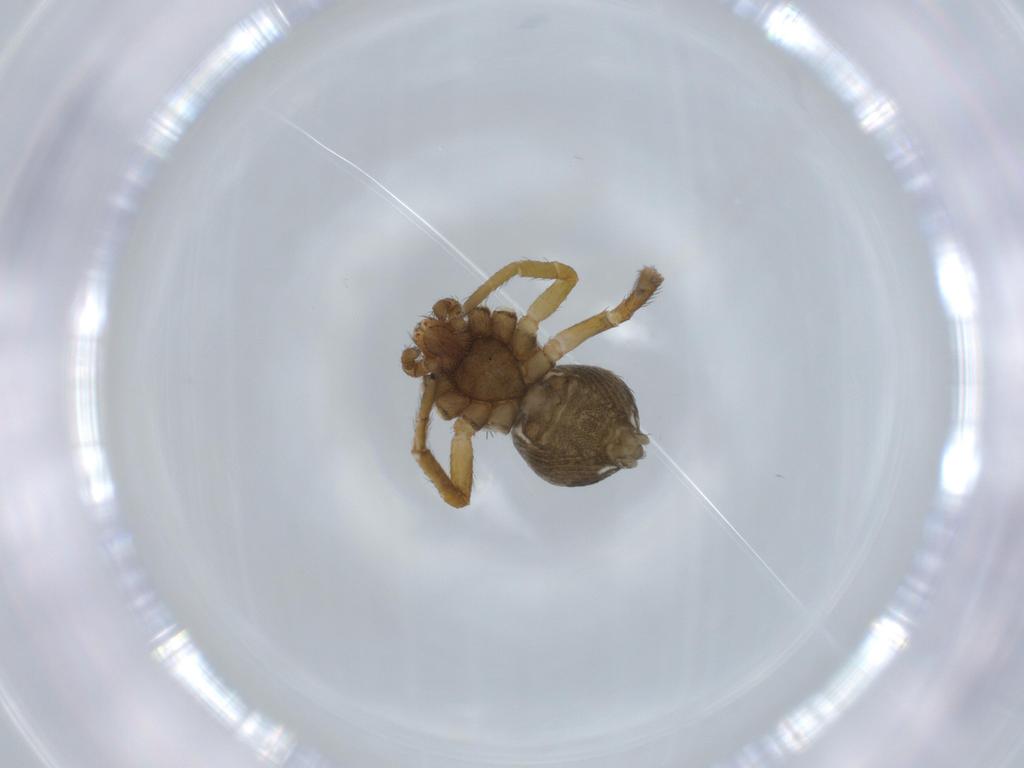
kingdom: Animalia
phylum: Arthropoda
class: Arachnida
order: Araneae
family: Thomisidae
